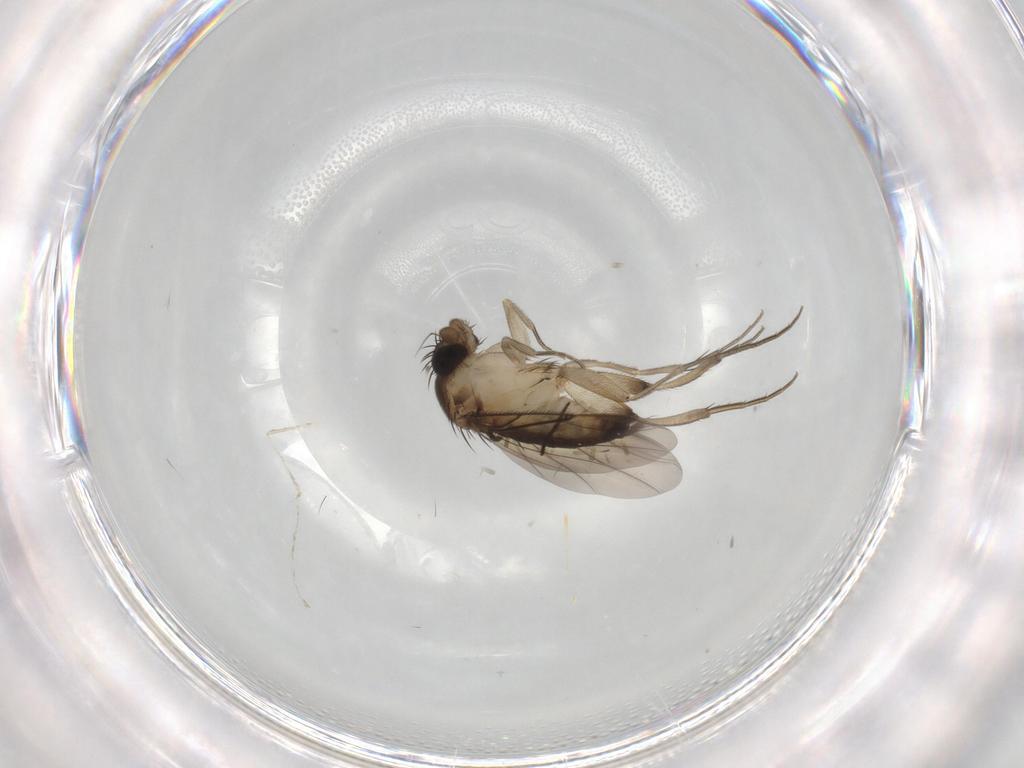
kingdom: Animalia
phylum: Arthropoda
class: Insecta
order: Diptera
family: Phoridae
